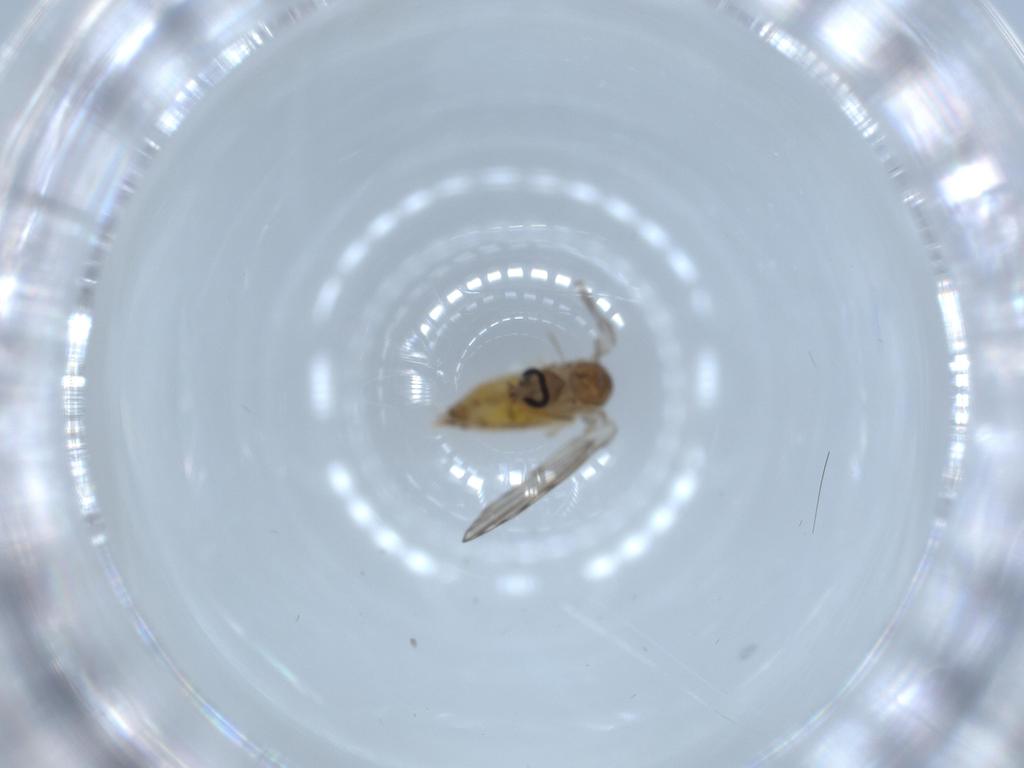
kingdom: Animalia
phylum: Arthropoda
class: Insecta
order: Diptera
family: Psychodidae
